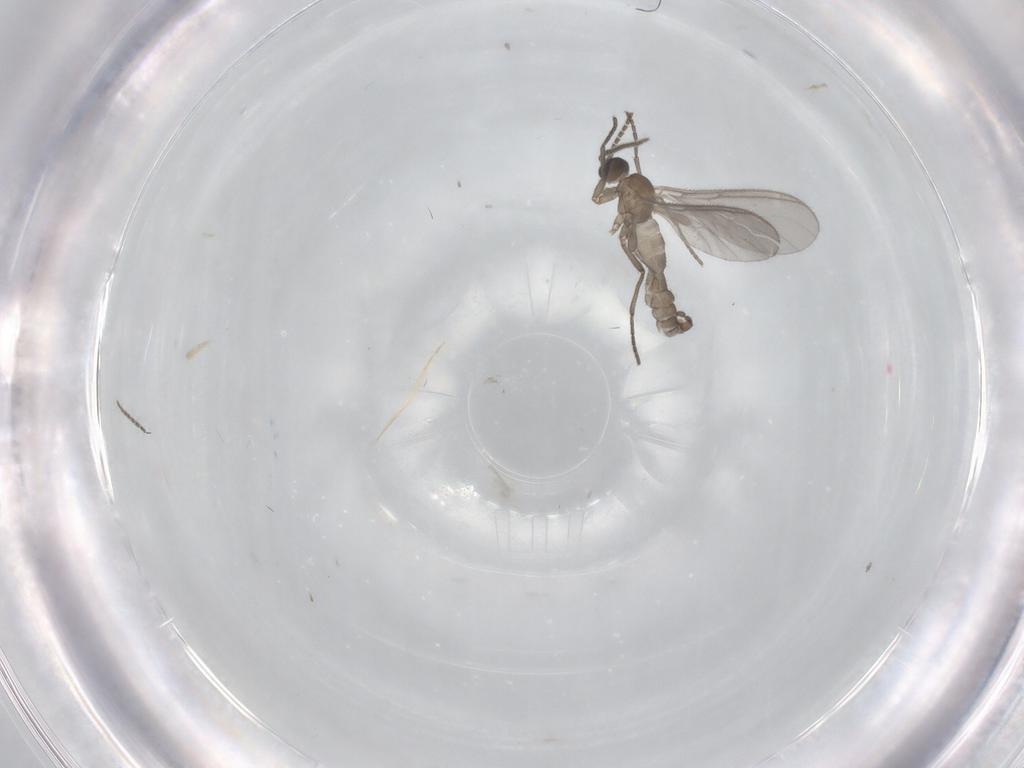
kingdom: Animalia
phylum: Arthropoda
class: Insecta
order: Diptera
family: Sciaridae
